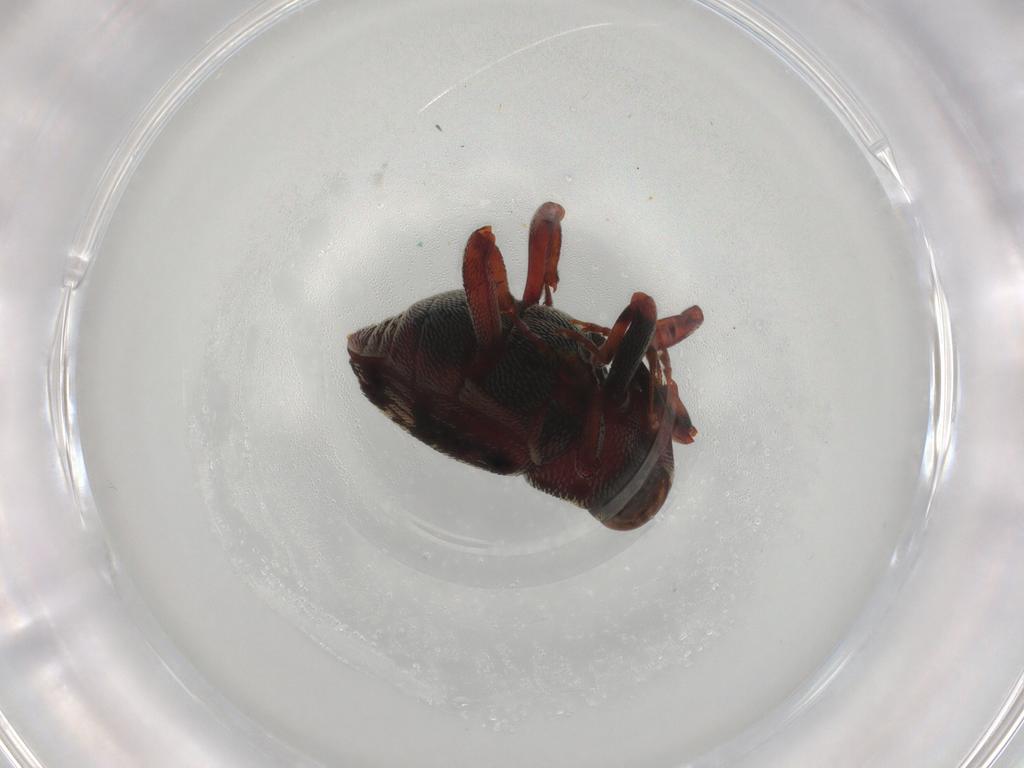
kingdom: Animalia
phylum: Arthropoda
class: Insecta
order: Coleoptera
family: Curculionidae
